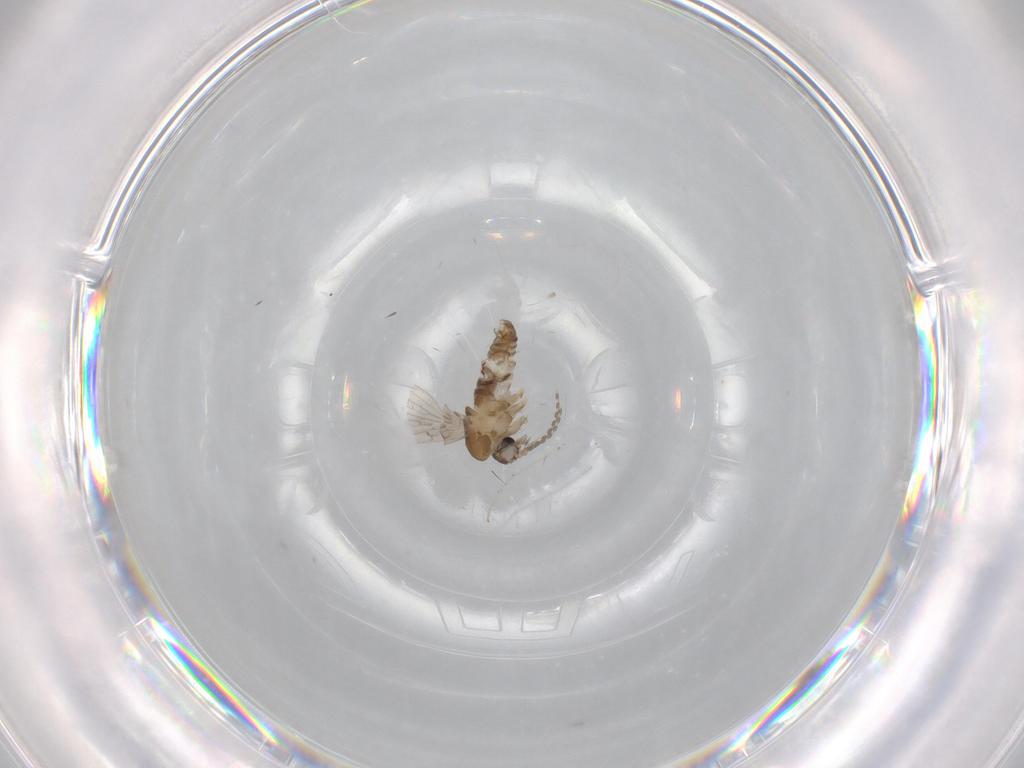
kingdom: Animalia
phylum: Arthropoda
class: Insecta
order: Diptera
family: Psychodidae
